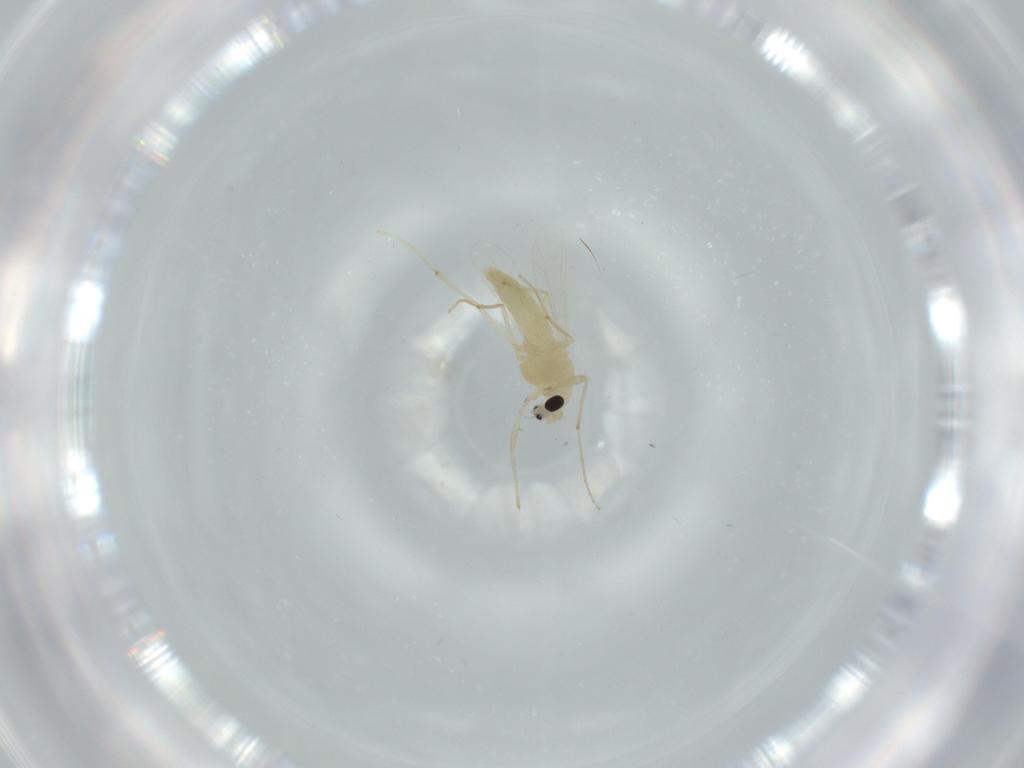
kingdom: Animalia
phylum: Arthropoda
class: Insecta
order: Diptera
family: Chironomidae
